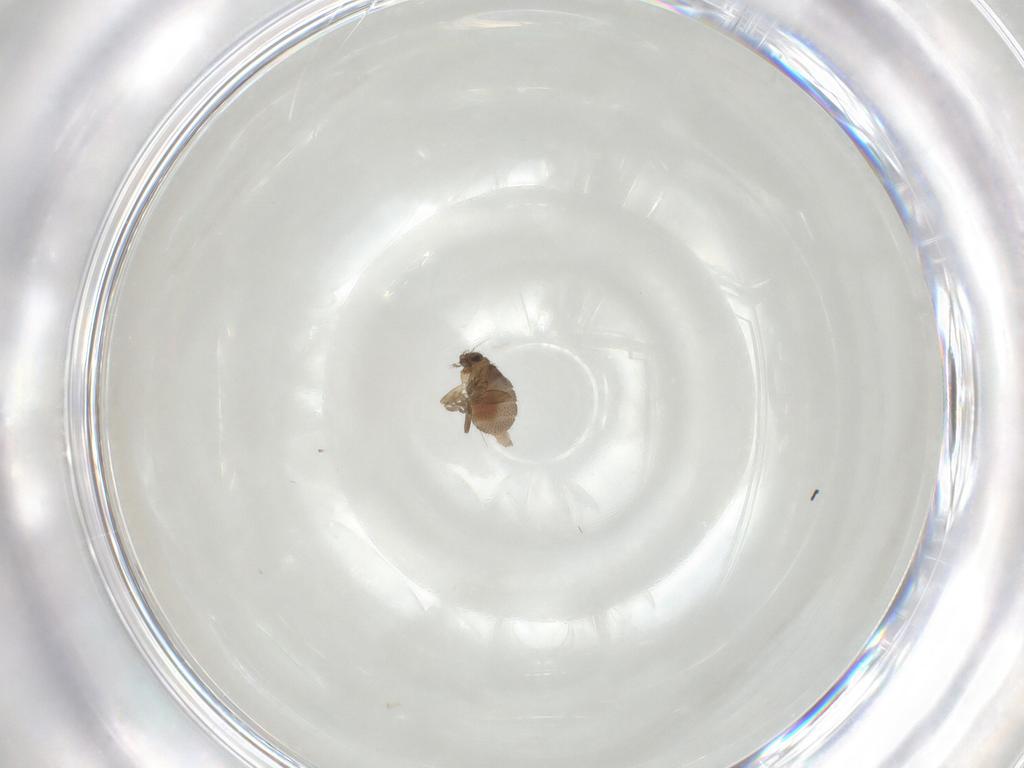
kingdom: Animalia
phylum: Arthropoda
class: Insecta
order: Diptera
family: Phoridae
